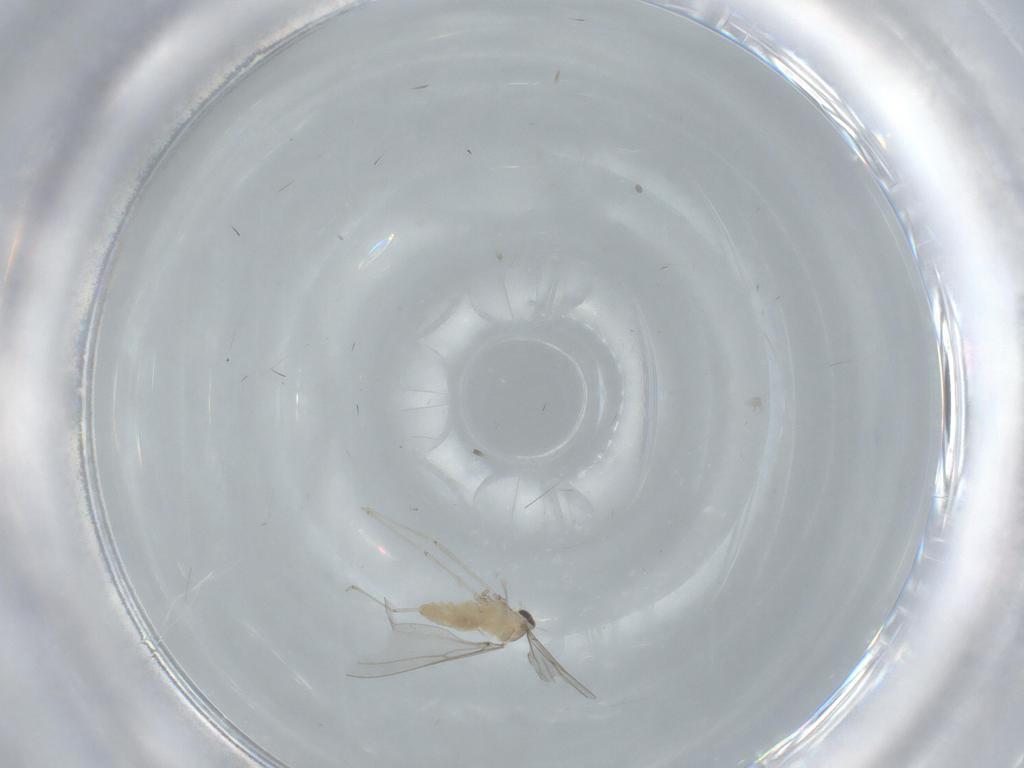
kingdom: Animalia
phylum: Arthropoda
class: Insecta
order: Diptera
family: Cecidomyiidae
